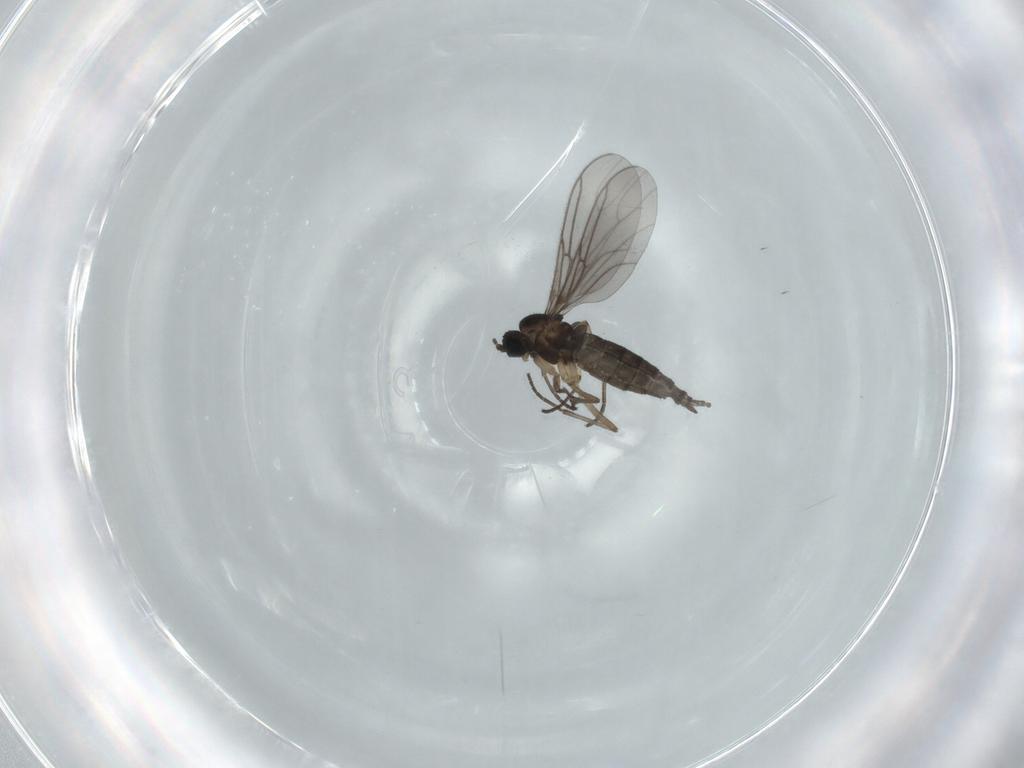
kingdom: Animalia
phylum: Arthropoda
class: Insecta
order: Diptera
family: Sciaridae
